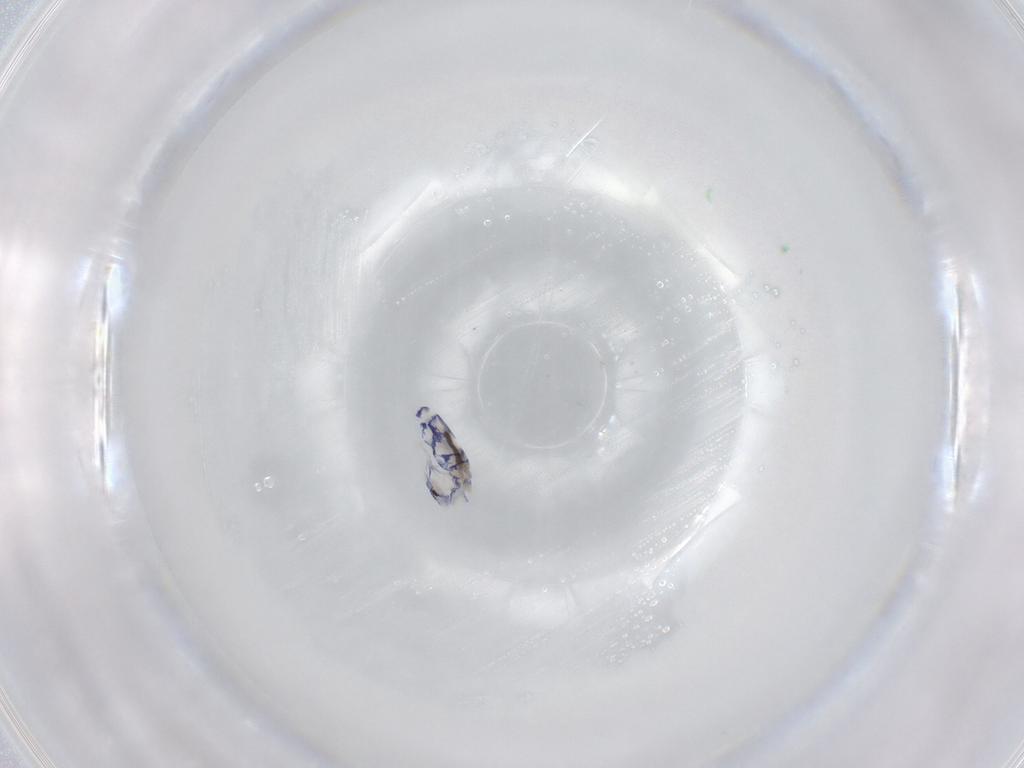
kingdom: Animalia
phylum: Arthropoda
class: Collembola
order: Entomobryomorpha
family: Entomobryidae
